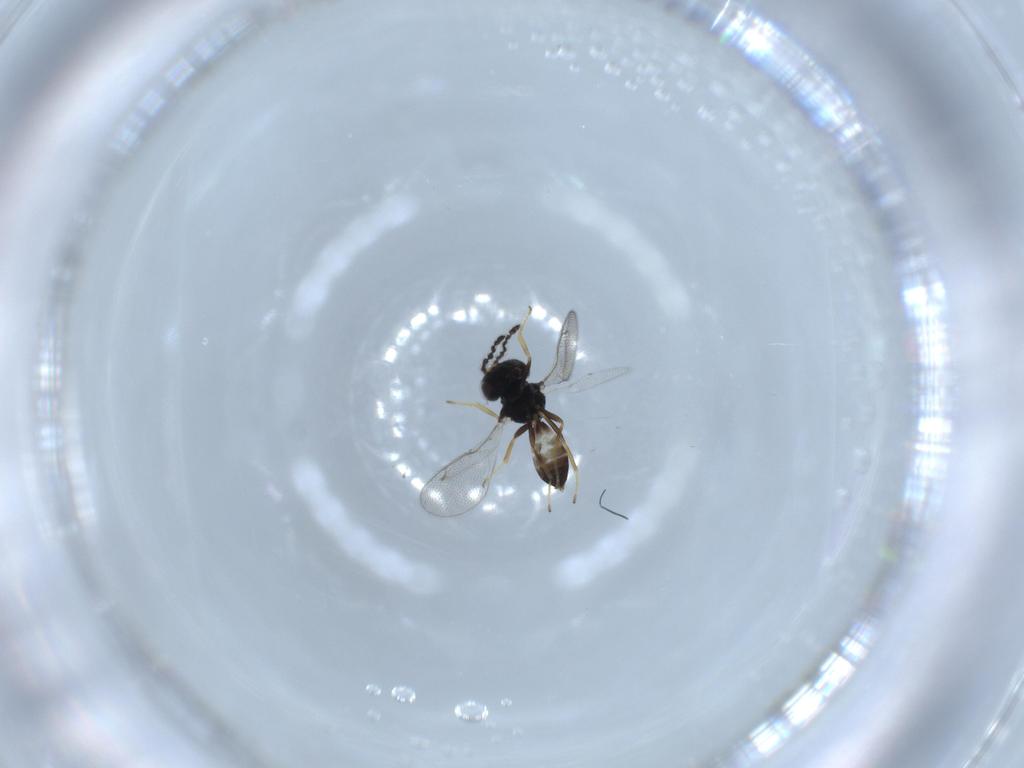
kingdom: Animalia
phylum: Arthropoda
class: Insecta
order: Hymenoptera
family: Pteromalidae
